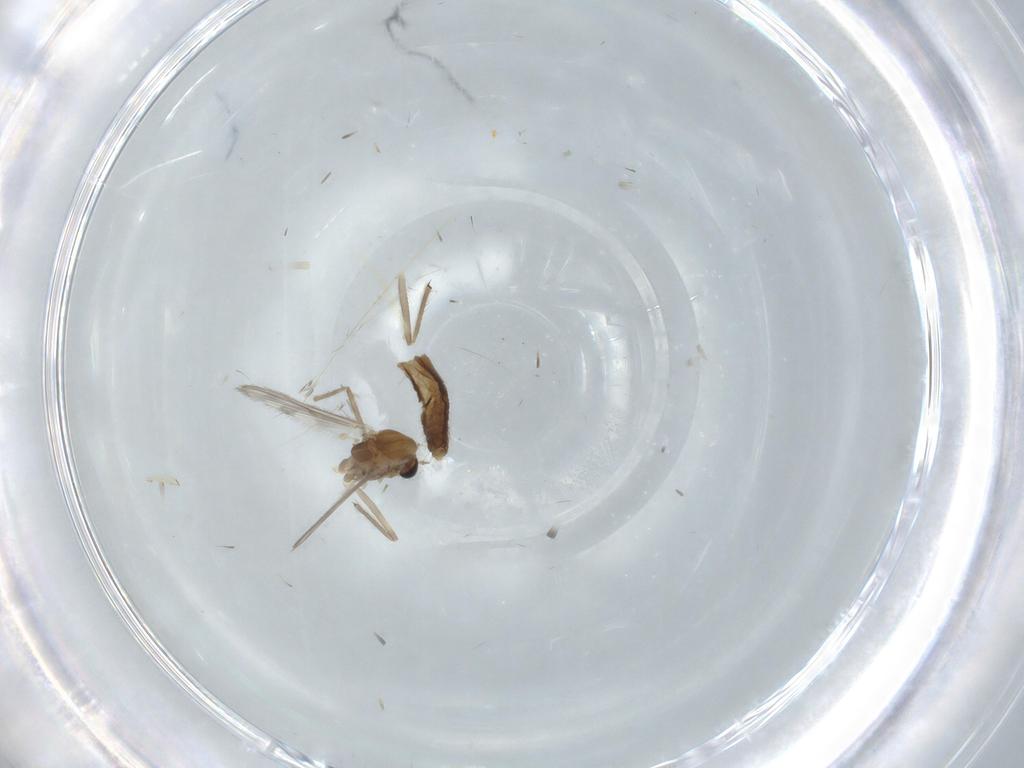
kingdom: Animalia
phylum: Arthropoda
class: Insecta
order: Diptera
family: Chironomidae
